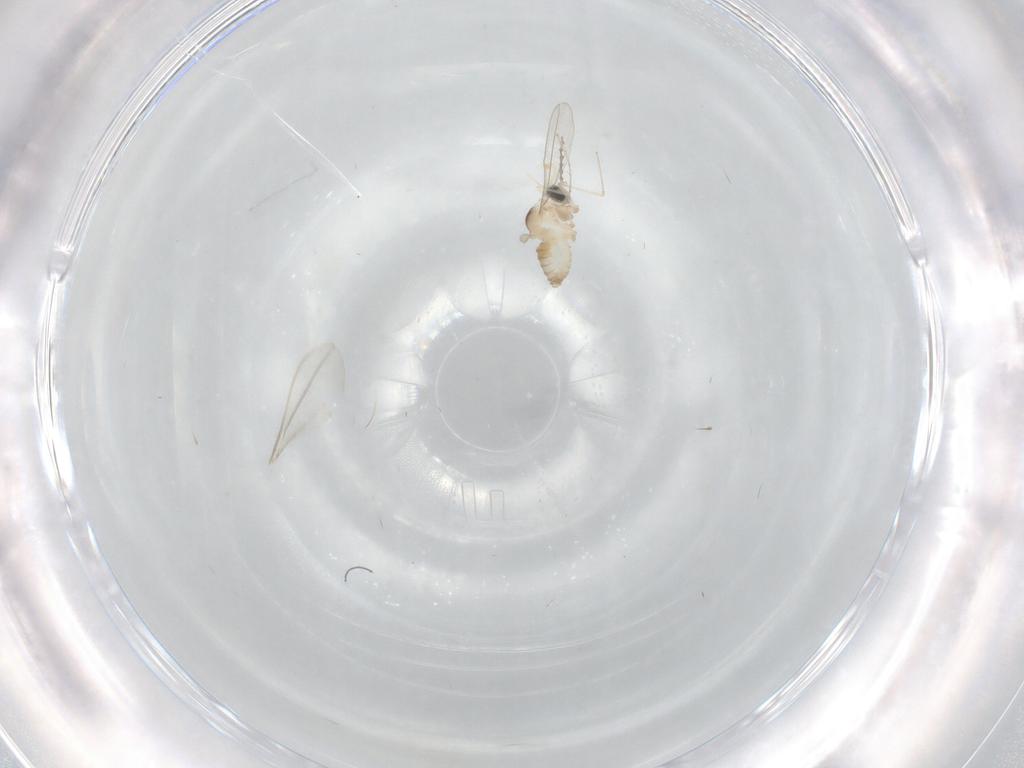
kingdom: Animalia
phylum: Arthropoda
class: Insecta
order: Diptera
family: Cecidomyiidae
